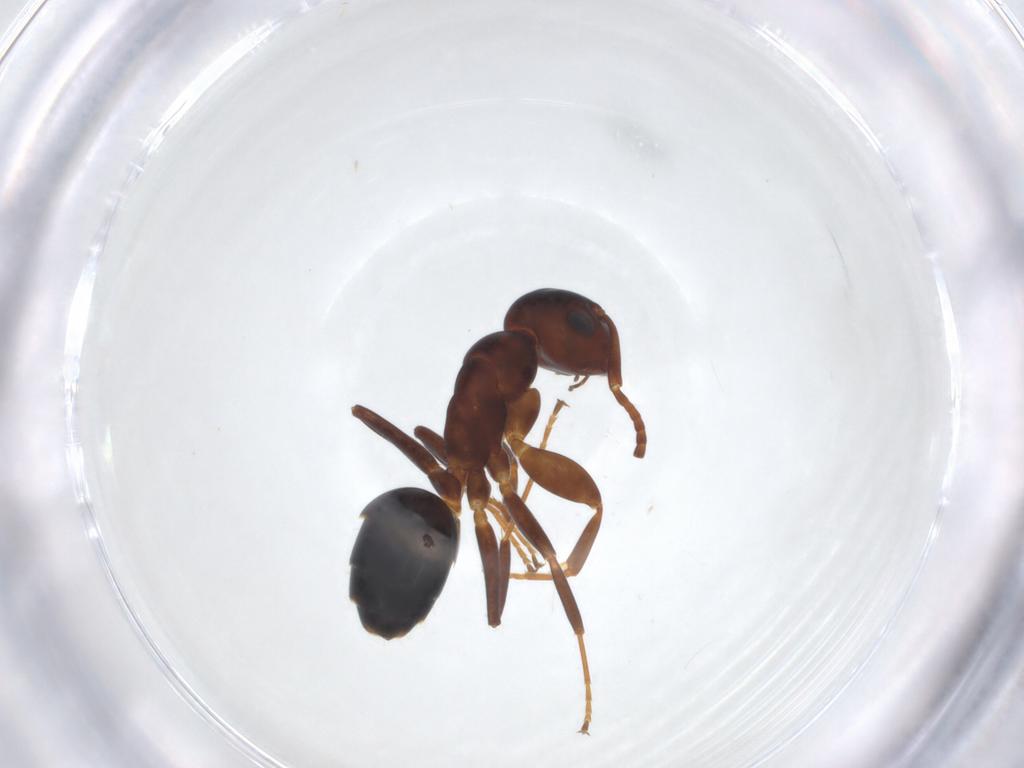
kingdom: Animalia
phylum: Arthropoda
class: Insecta
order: Hymenoptera
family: Formicidae
